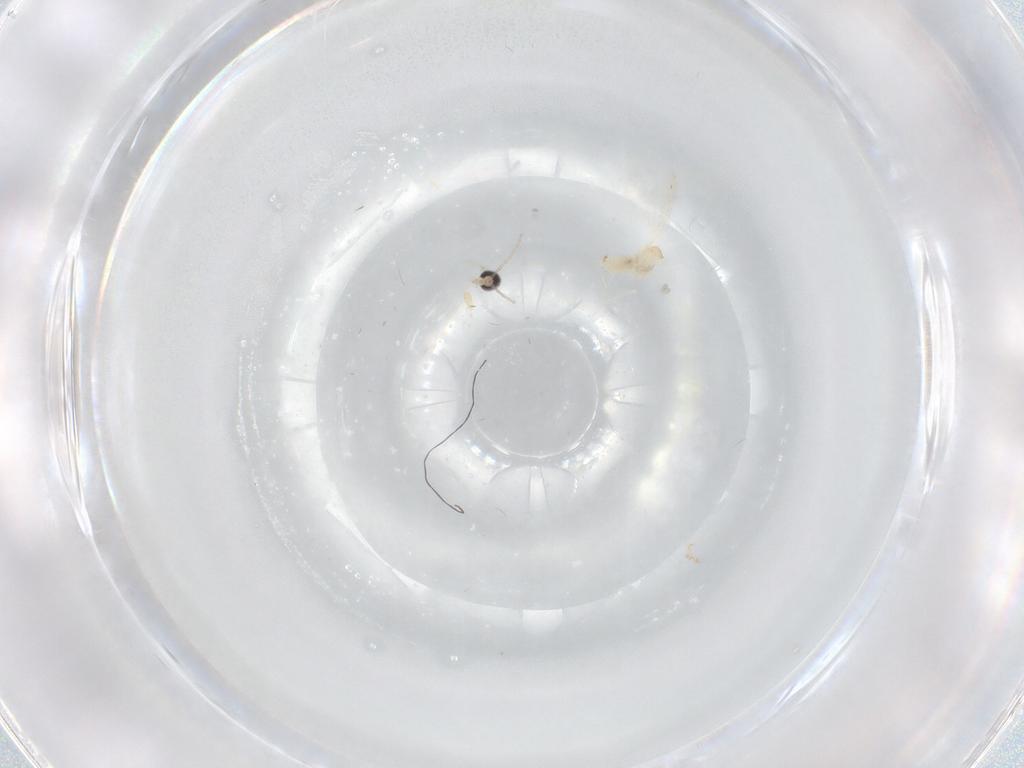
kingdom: Animalia
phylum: Arthropoda
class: Insecta
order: Diptera
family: Cecidomyiidae
